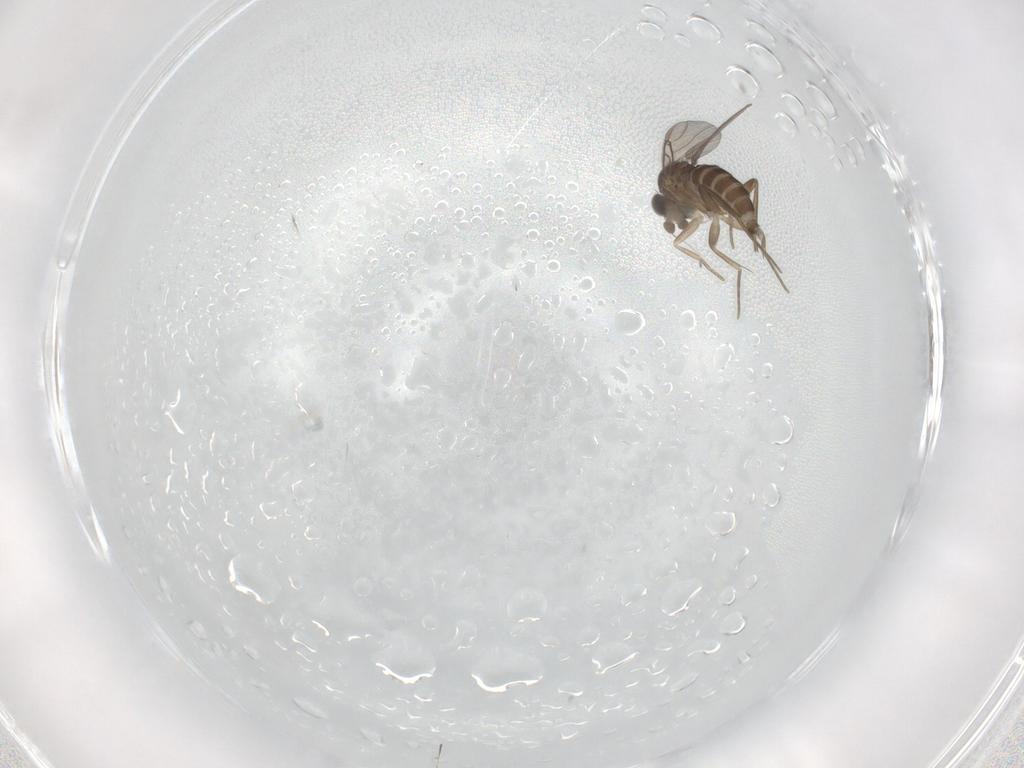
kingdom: Animalia
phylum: Arthropoda
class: Insecta
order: Diptera
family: Phoridae
